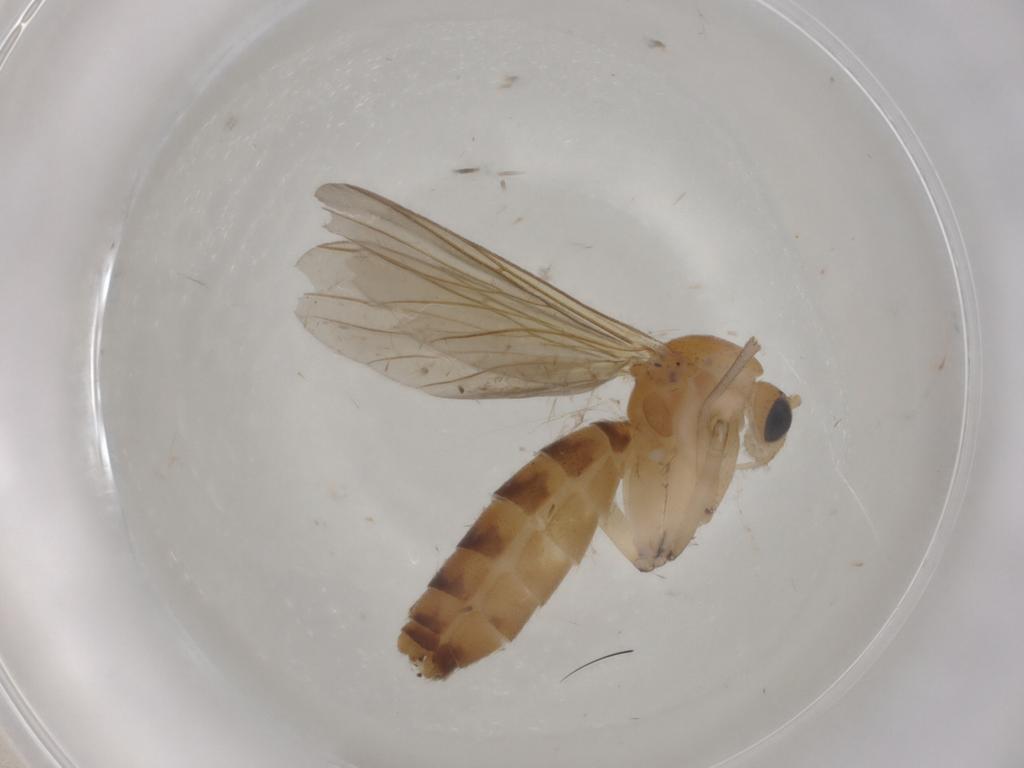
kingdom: Animalia
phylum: Arthropoda
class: Insecta
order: Diptera
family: Mycetophilidae
